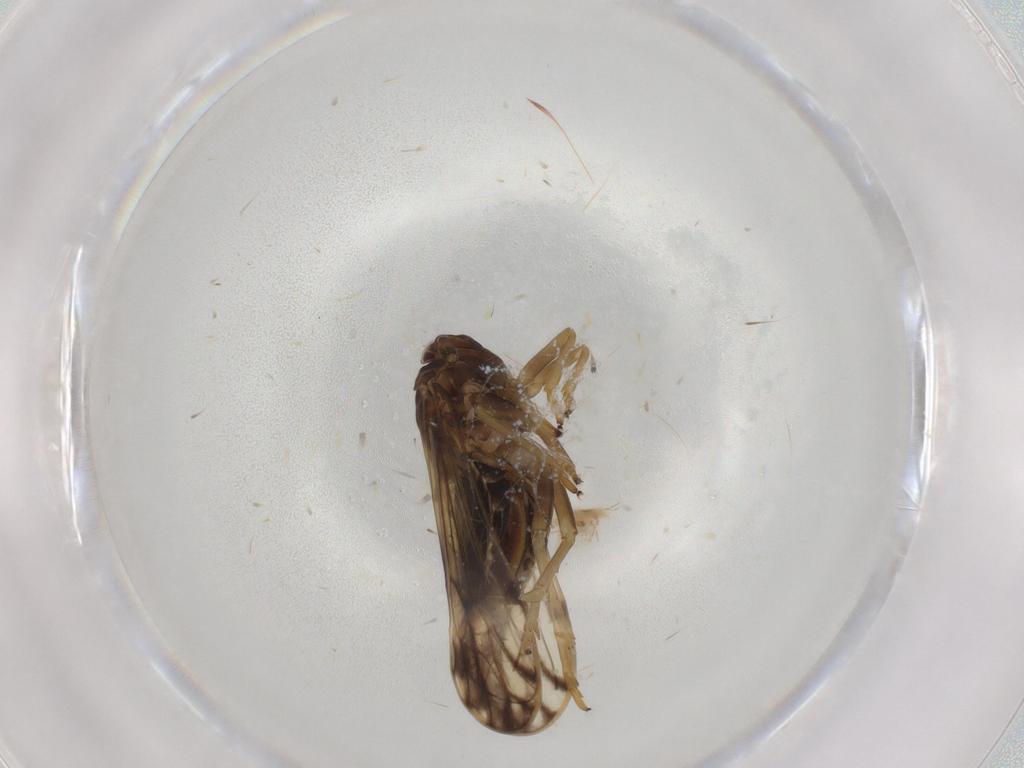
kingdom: Animalia
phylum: Arthropoda
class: Insecta
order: Hemiptera
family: Delphacidae
